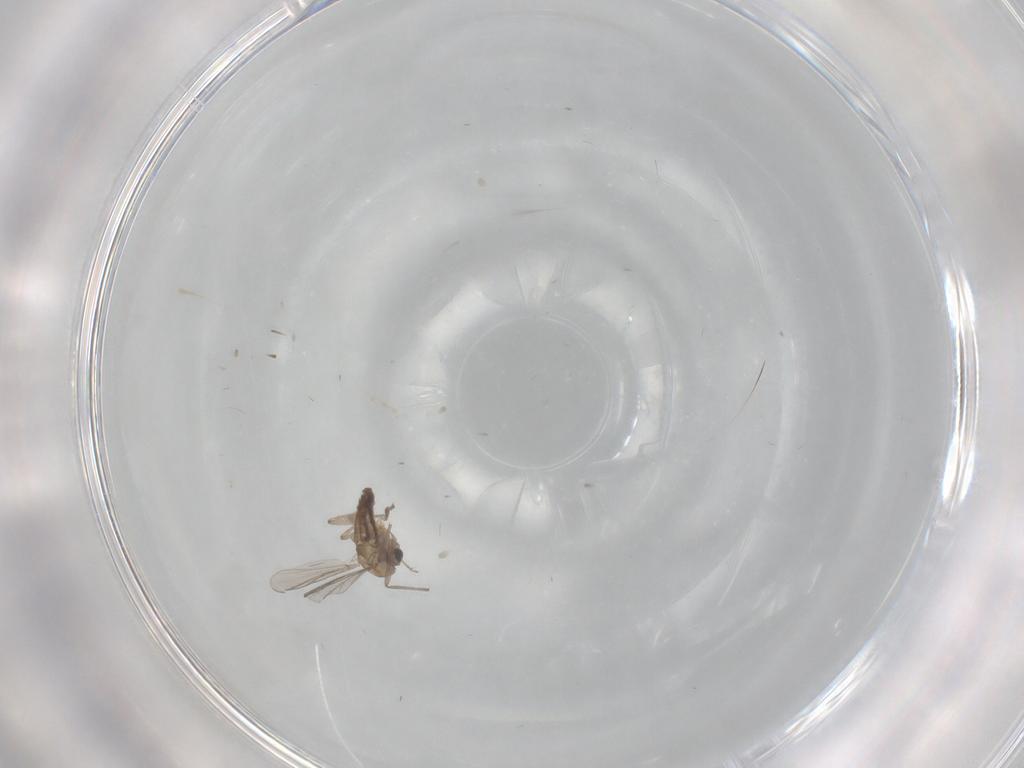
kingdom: Animalia
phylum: Arthropoda
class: Insecta
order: Diptera
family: Chironomidae
